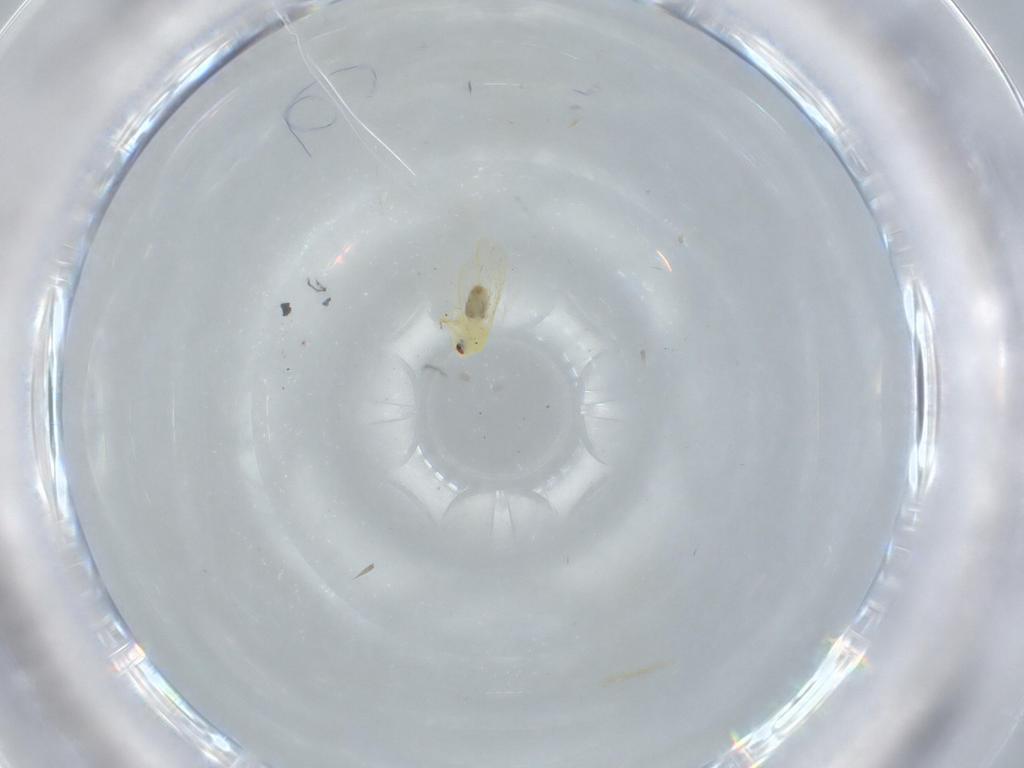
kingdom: Animalia
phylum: Arthropoda
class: Insecta
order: Hemiptera
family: Aleyrodidae
